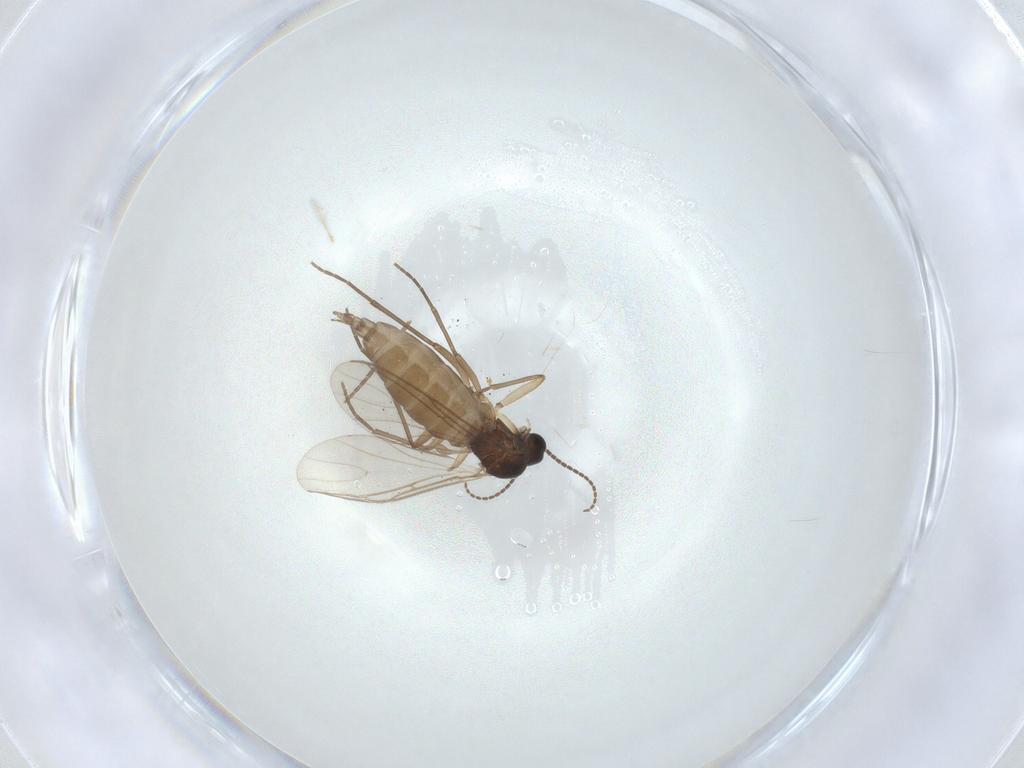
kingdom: Animalia
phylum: Arthropoda
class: Insecta
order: Diptera
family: Sciaridae
